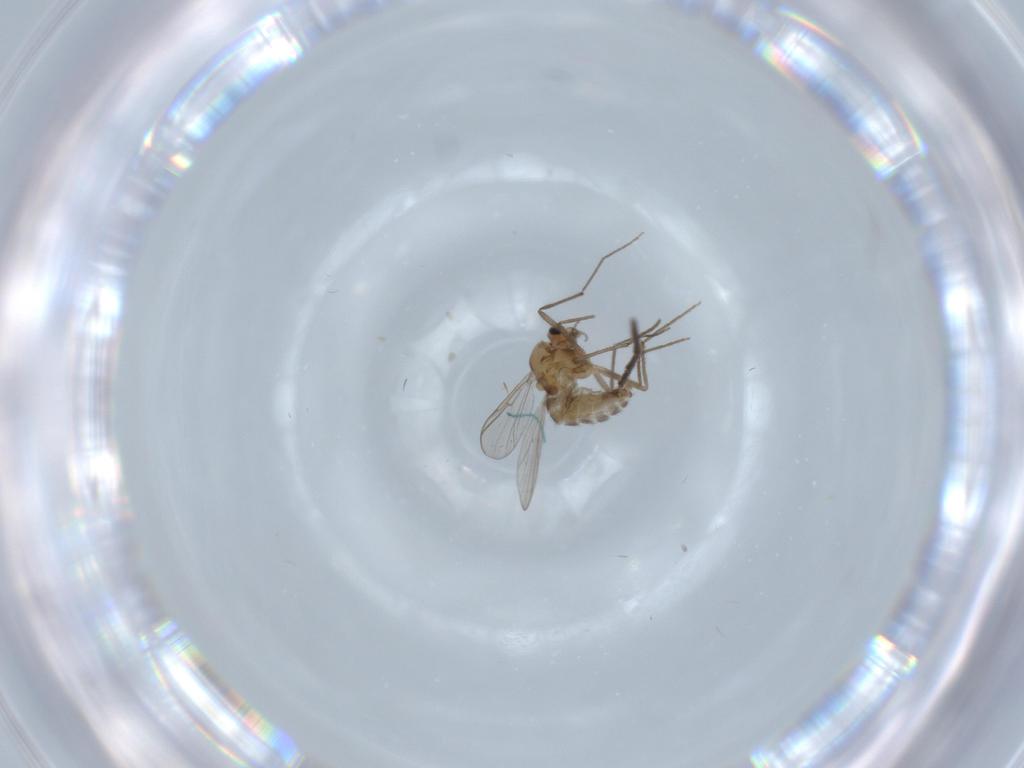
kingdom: Animalia
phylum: Arthropoda
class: Insecta
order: Diptera
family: Chironomidae
